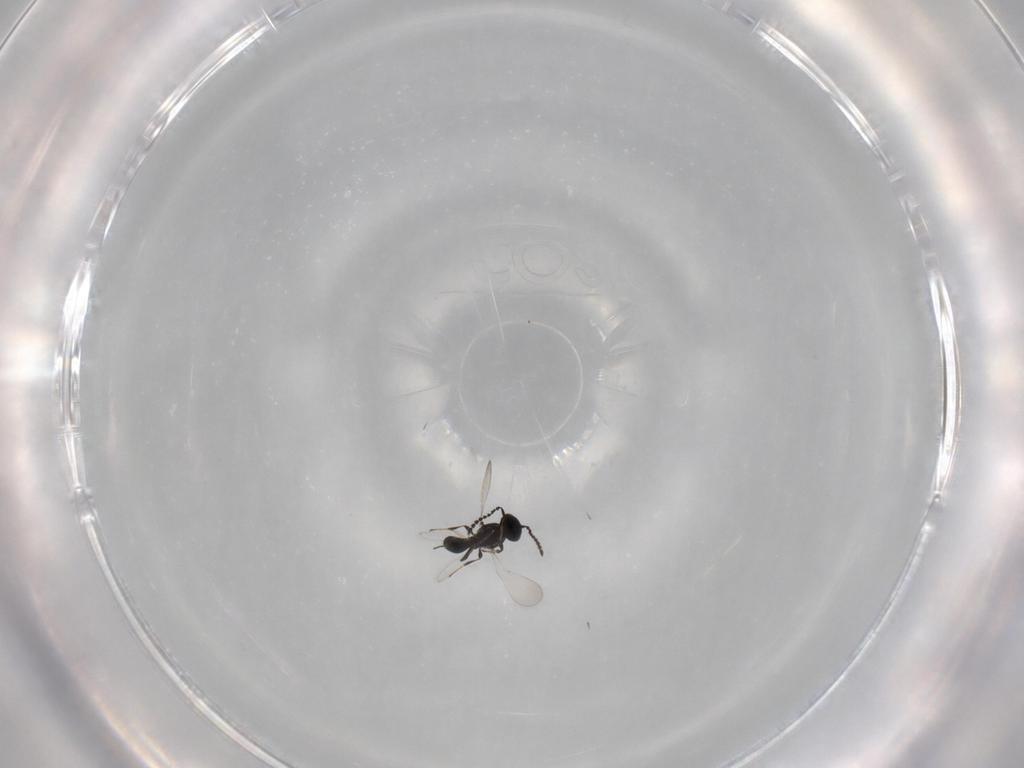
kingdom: Animalia
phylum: Arthropoda
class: Insecta
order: Hymenoptera
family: Platygastridae
